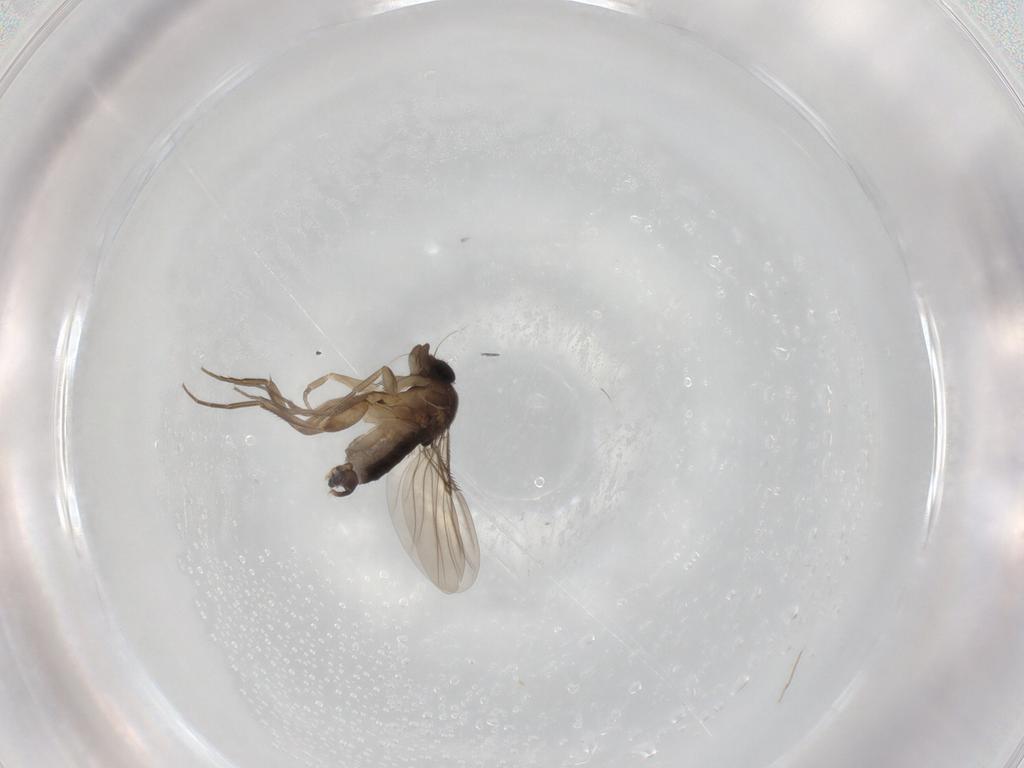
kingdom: Animalia
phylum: Arthropoda
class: Insecta
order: Diptera
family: Phoridae
